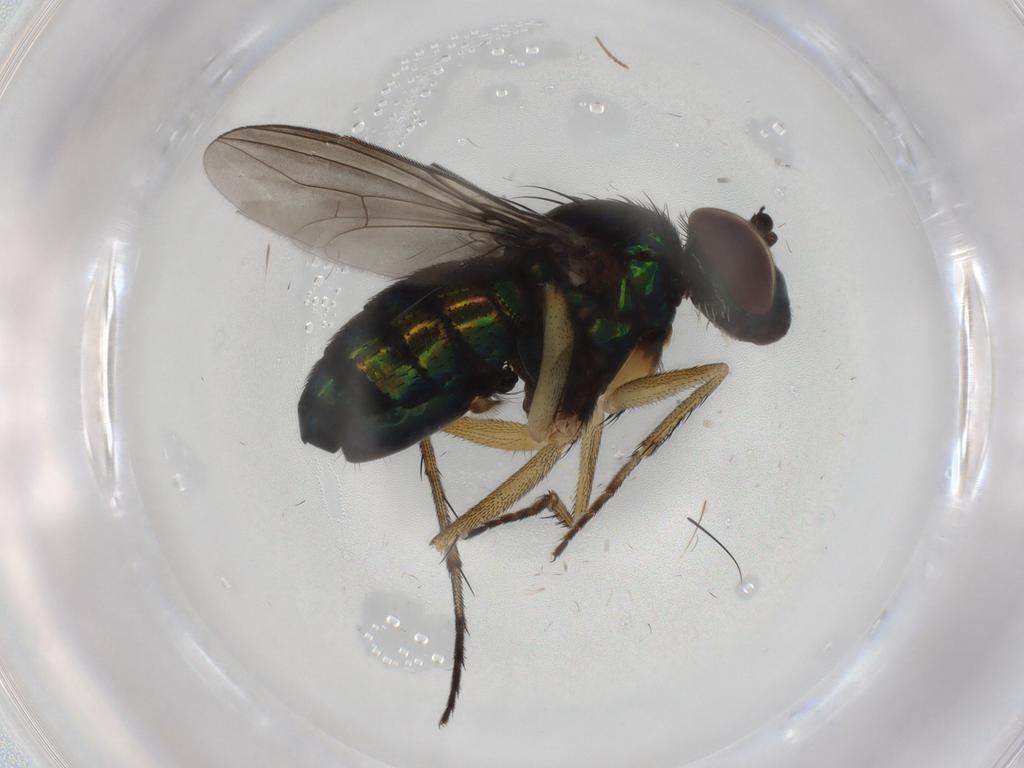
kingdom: Animalia
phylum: Arthropoda
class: Insecta
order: Diptera
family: Dolichopodidae
